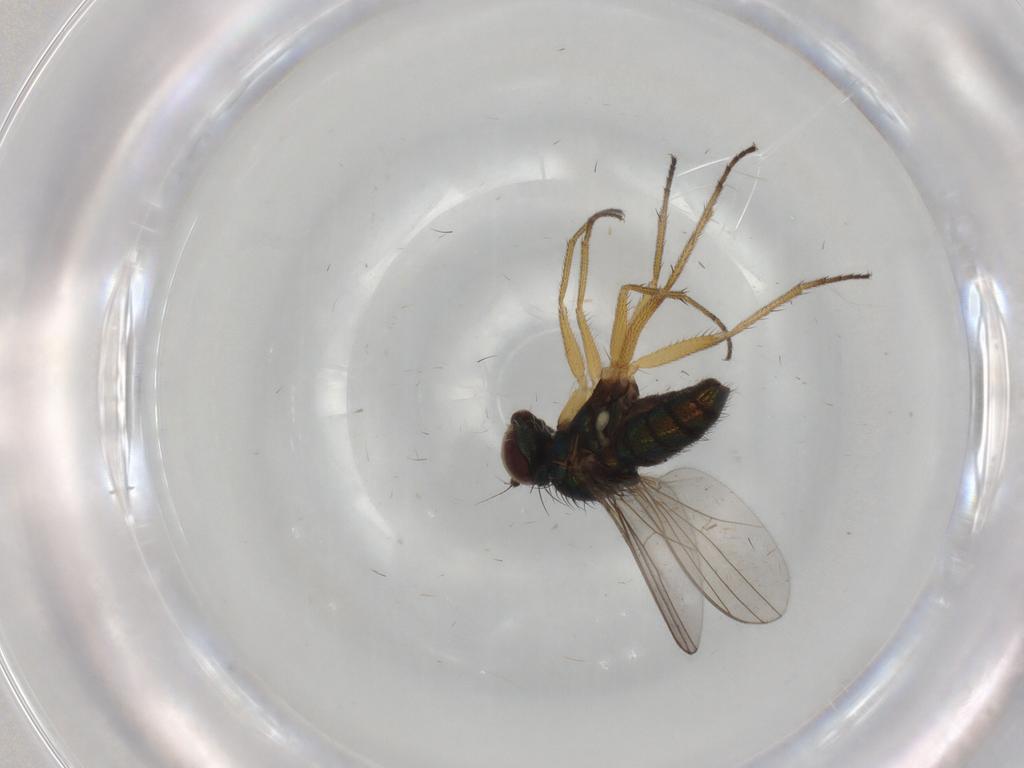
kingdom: Animalia
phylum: Arthropoda
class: Insecta
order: Diptera
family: Dolichopodidae
